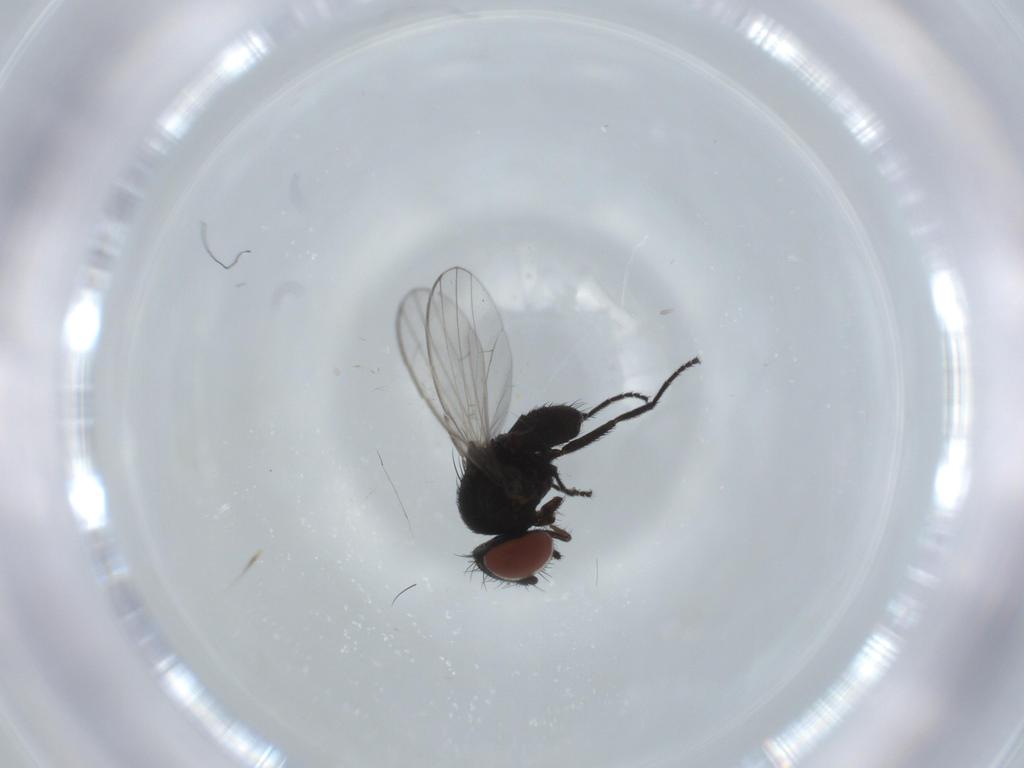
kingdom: Animalia
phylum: Arthropoda
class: Insecta
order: Diptera
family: Milichiidae
